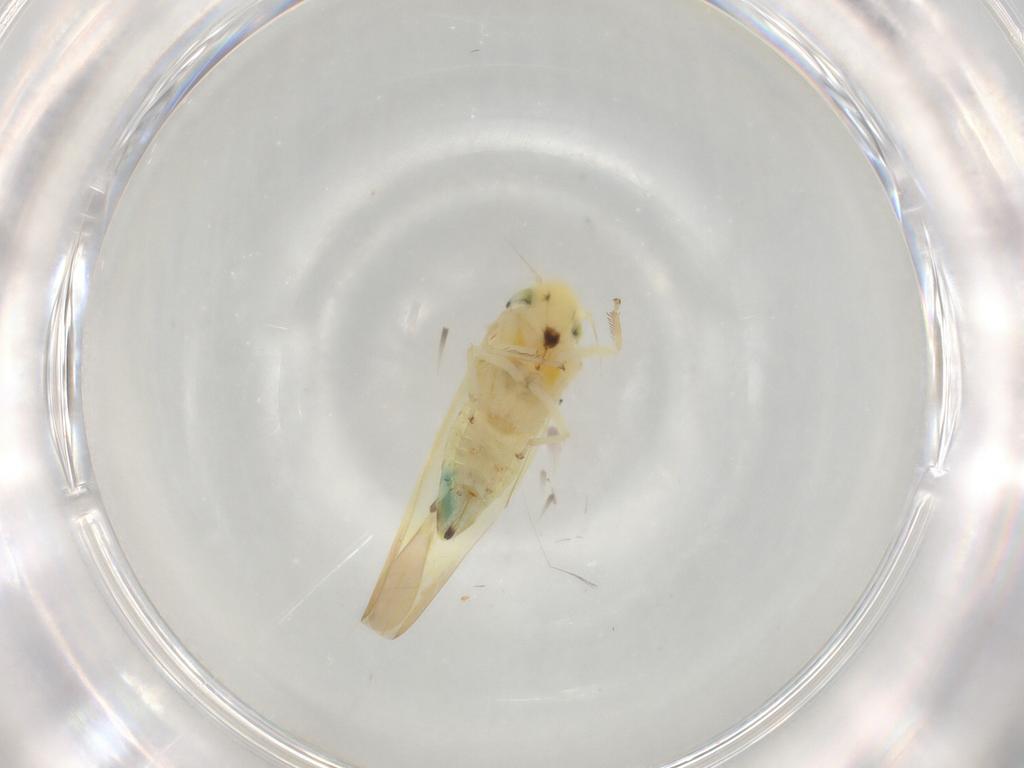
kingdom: Animalia
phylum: Arthropoda
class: Insecta
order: Hemiptera
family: Cicadellidae
